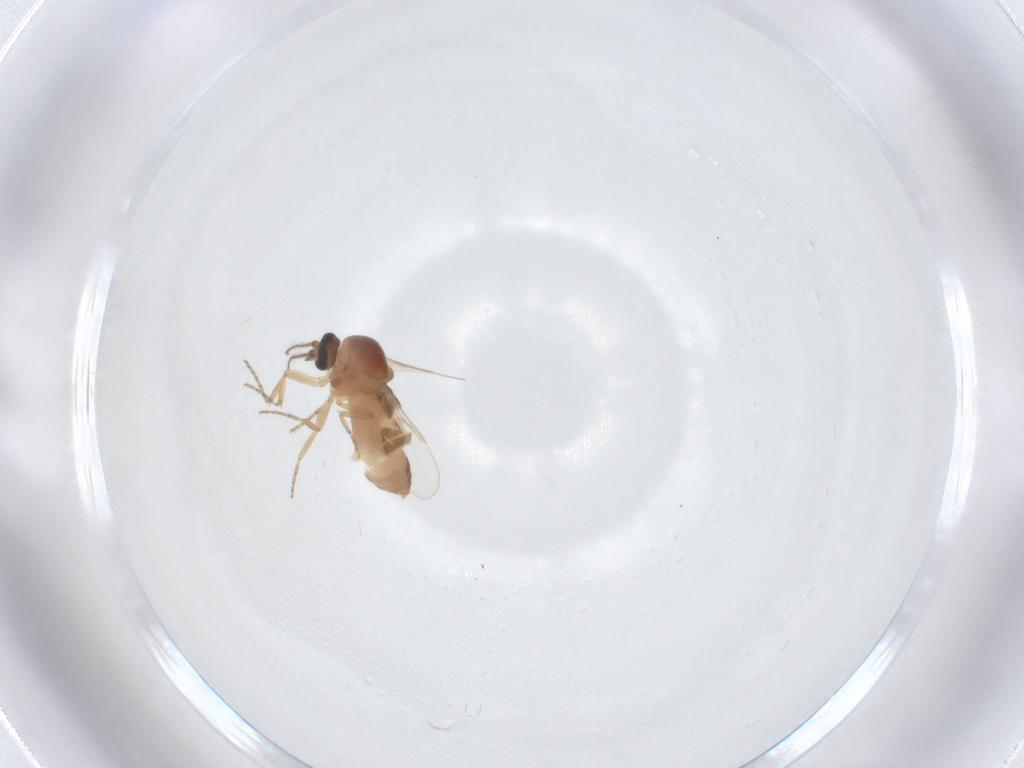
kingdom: Animalia
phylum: Arthropoda
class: Insecta
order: Diptera
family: Ceratopogonidae
